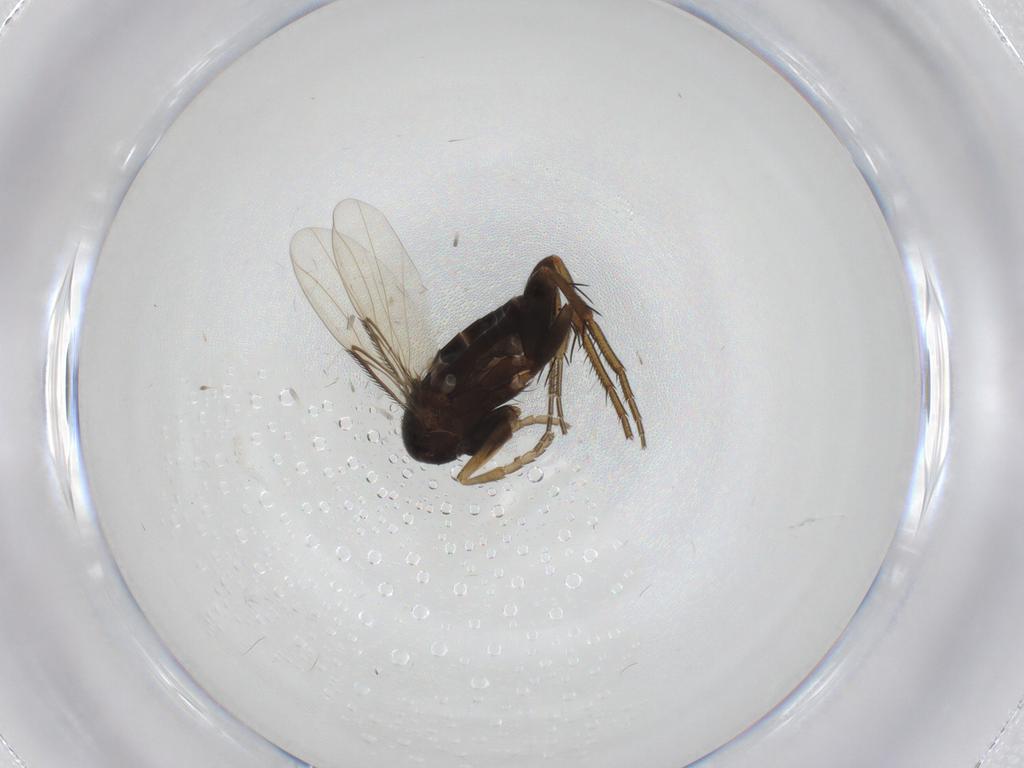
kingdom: Animalia
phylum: Arthropoda
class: Insecta
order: Diptera
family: Phoridae
